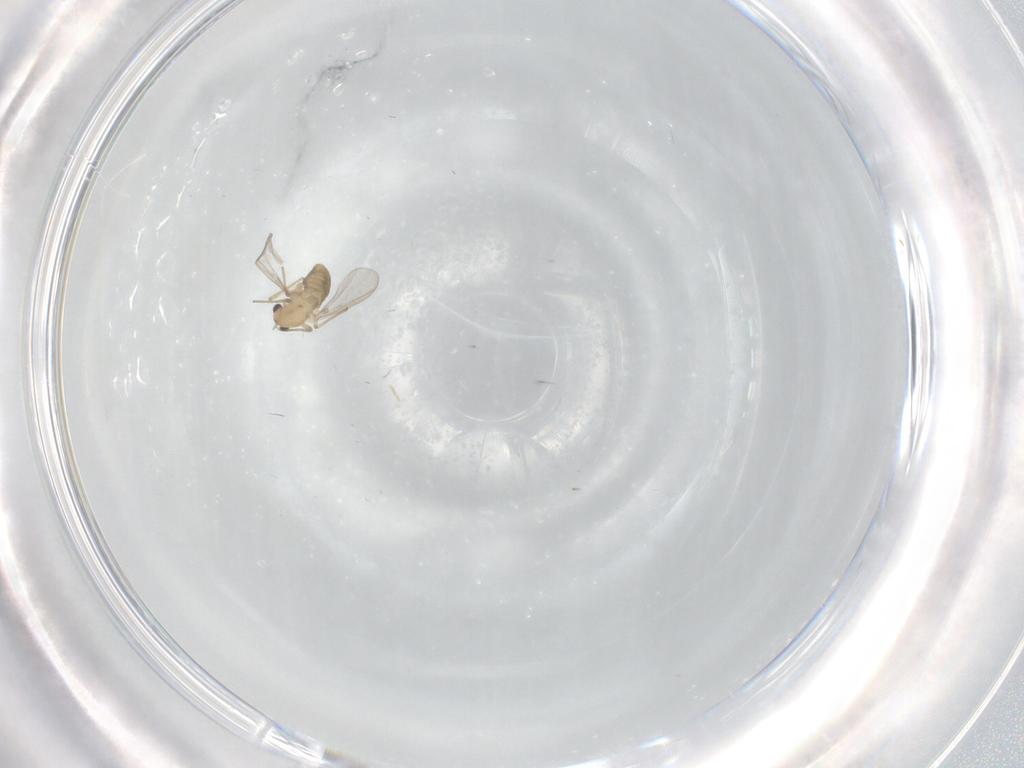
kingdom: Animalia
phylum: Arthropoda
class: Insecta
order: Diptera
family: Chironomidae
